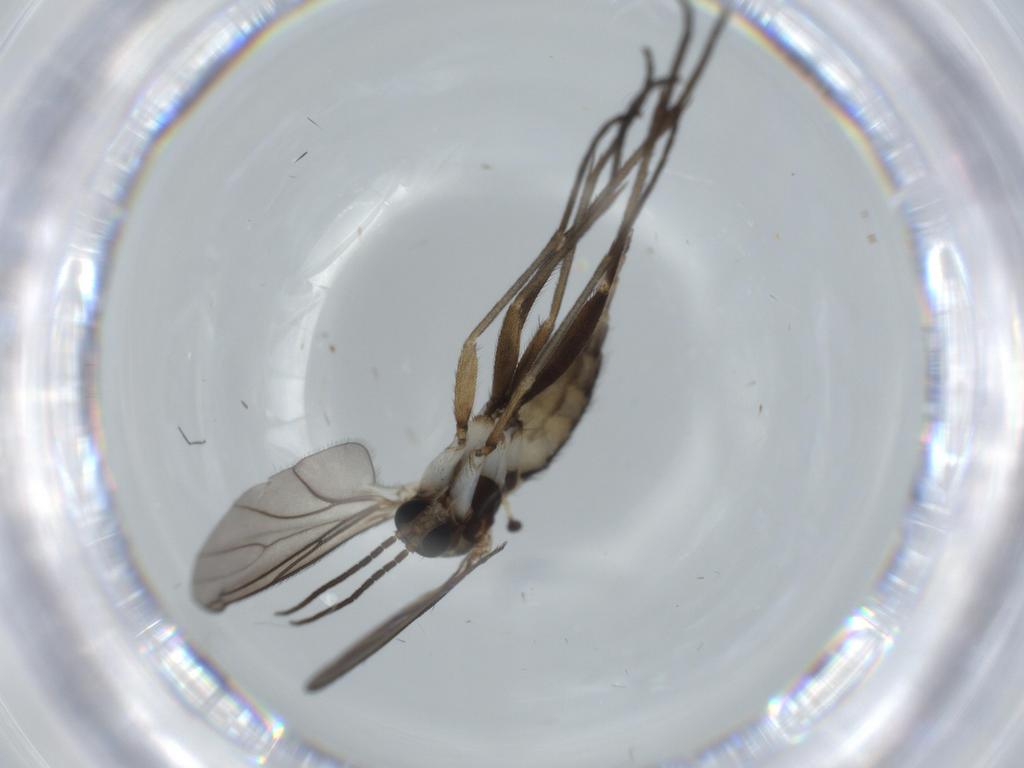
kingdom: Animalia
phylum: Arthropoda
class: Insecta
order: Diptera
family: Sciaridae
